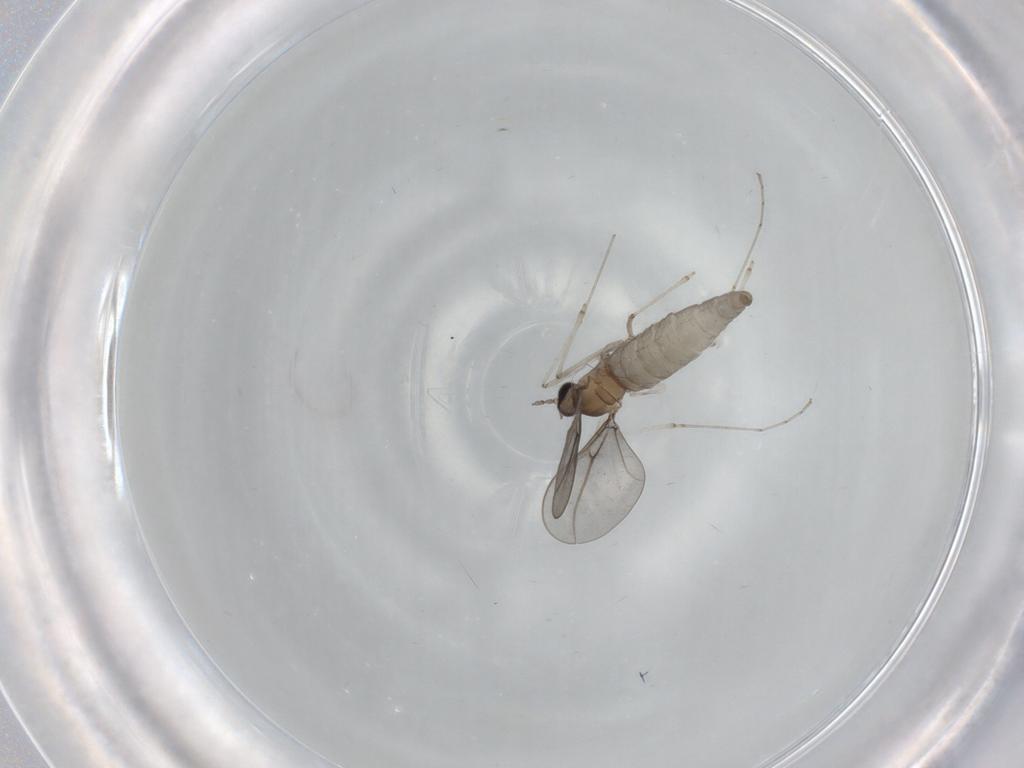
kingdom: Animalia
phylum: Arthropoda
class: Insecta
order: Diptera
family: Cecidomyiidae
